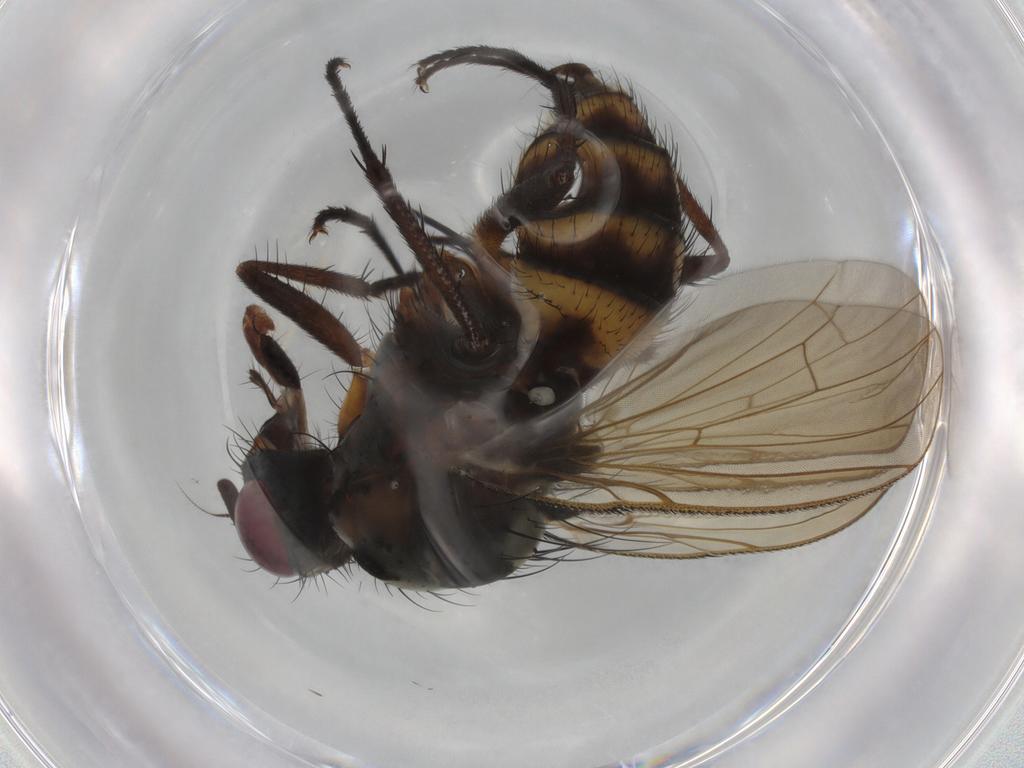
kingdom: Animalia
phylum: Arthropoda
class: Insecta
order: Diptera
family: Anthomyiidae
